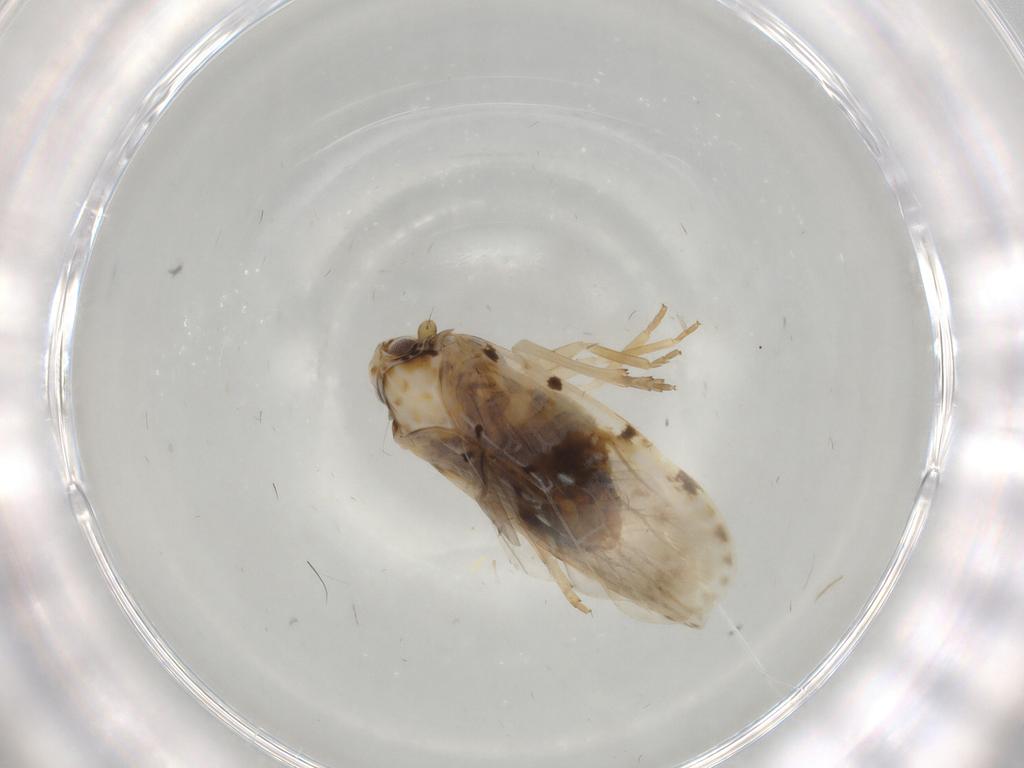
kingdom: Animalia
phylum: Arthropoda
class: Insecta
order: Hemiptera
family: Achilidae
